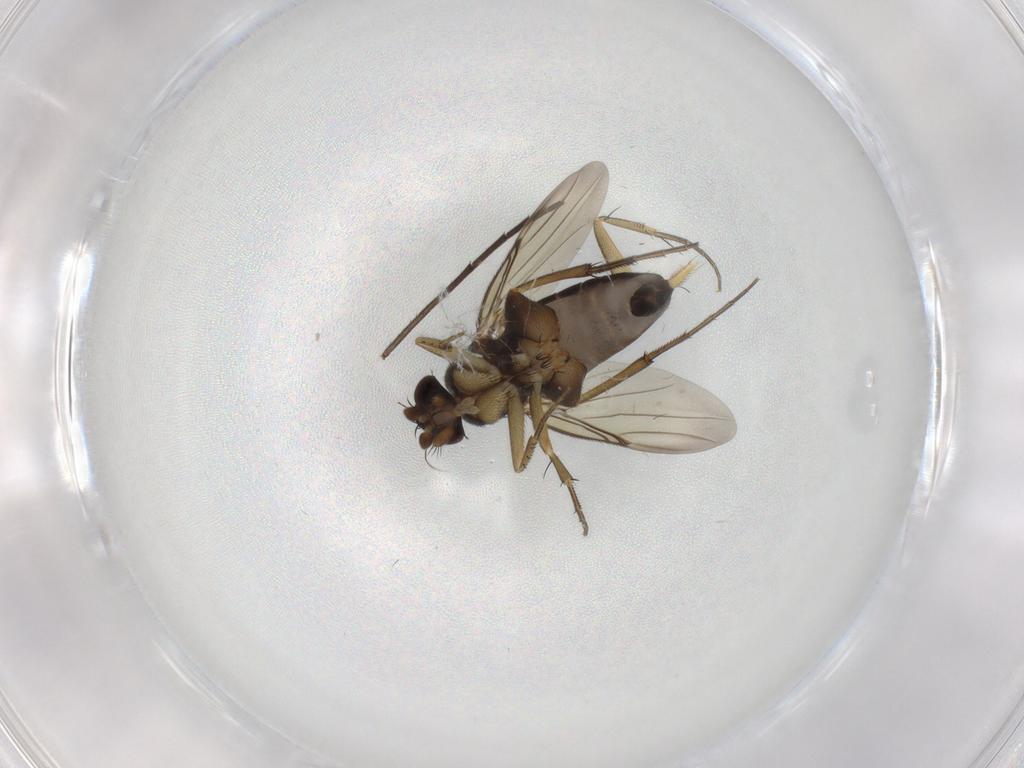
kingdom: Animalia
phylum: Arthropoda
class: Insecta
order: Diptera
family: Phoridae
